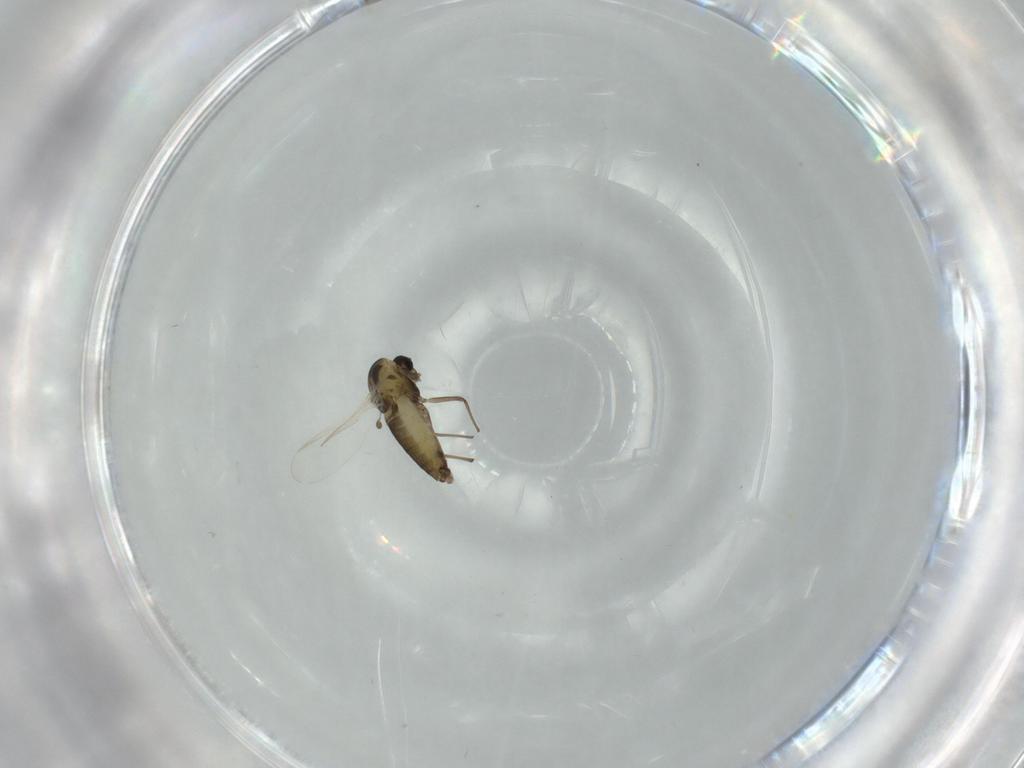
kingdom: Animalia
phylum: Arthropoda
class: Insecta
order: Diptera
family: Chironomidae
